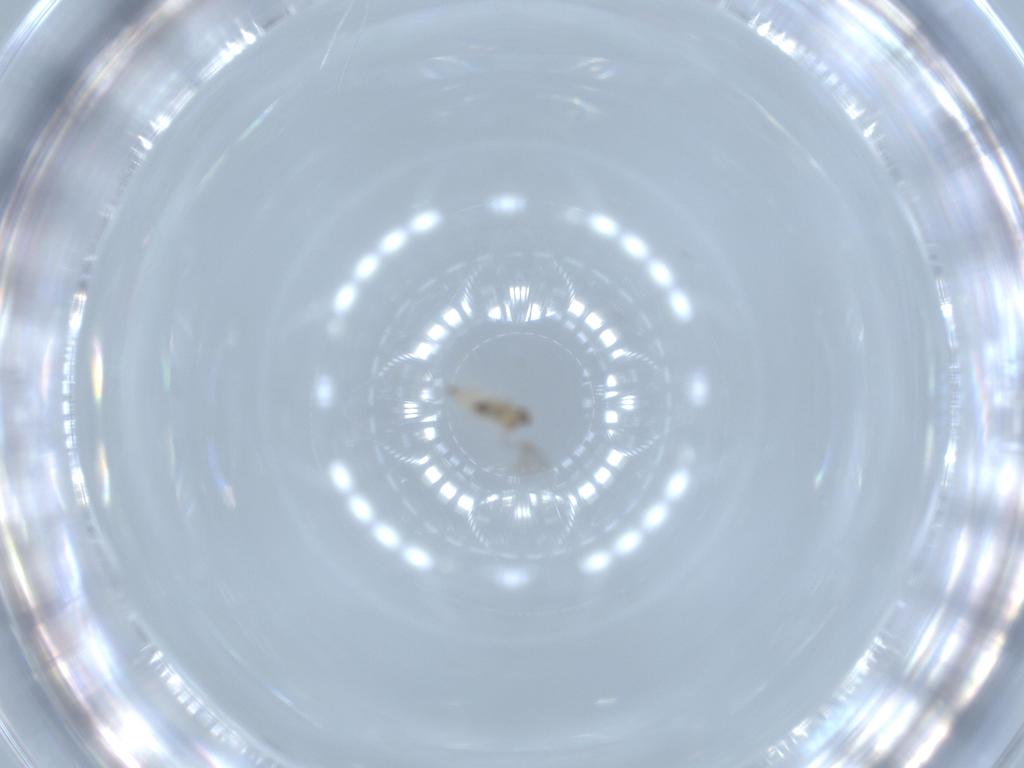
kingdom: Animalia
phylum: Arthropoda
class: Insecta
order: Diptera
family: Cecidomyiidae
